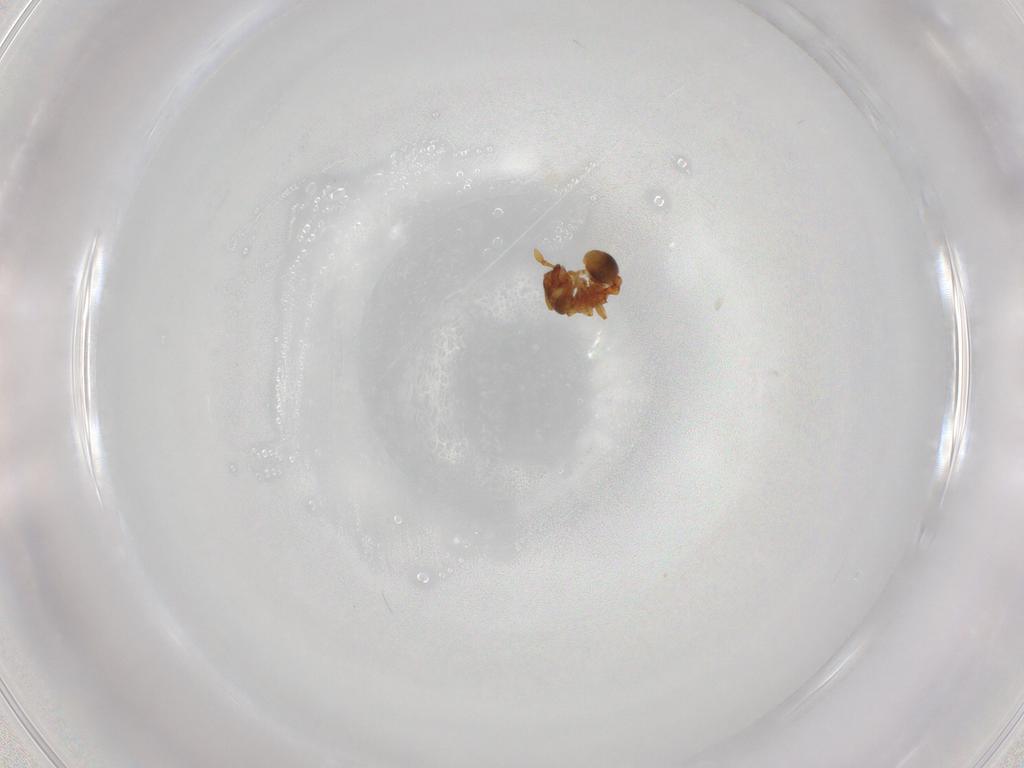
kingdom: Animalia
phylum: Arthropoda
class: Insecta
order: Hymenoptera
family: Formicidae
